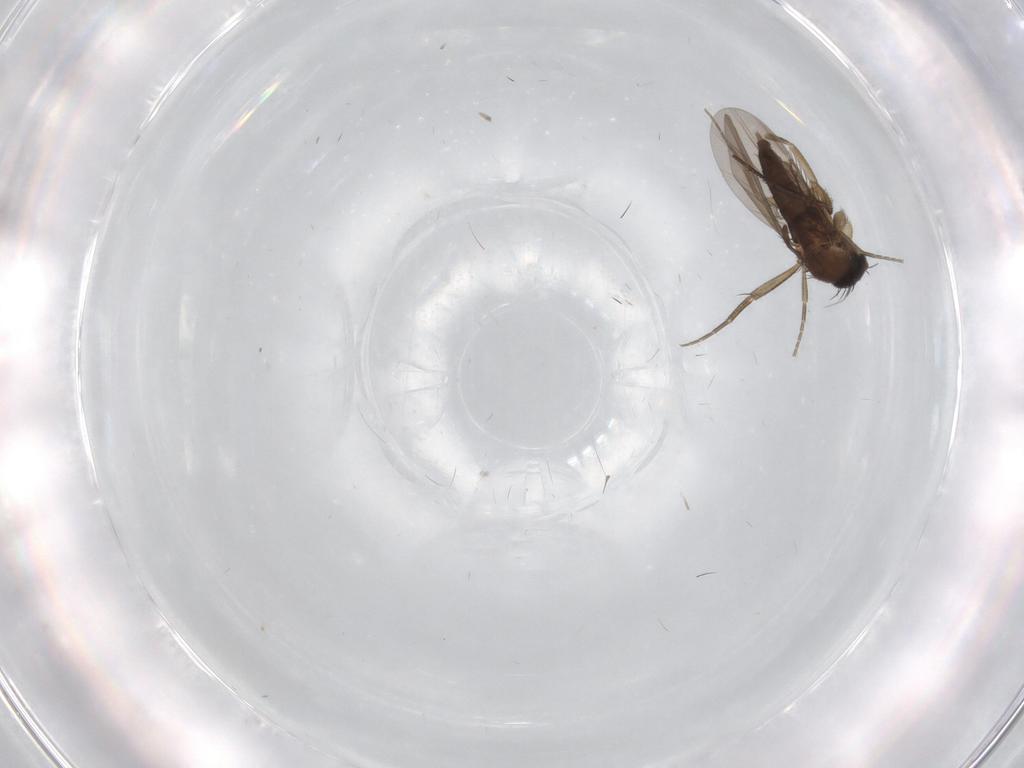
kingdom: Animalia
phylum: Arthropoda
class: Insecta
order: Diptera
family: Phoridae
